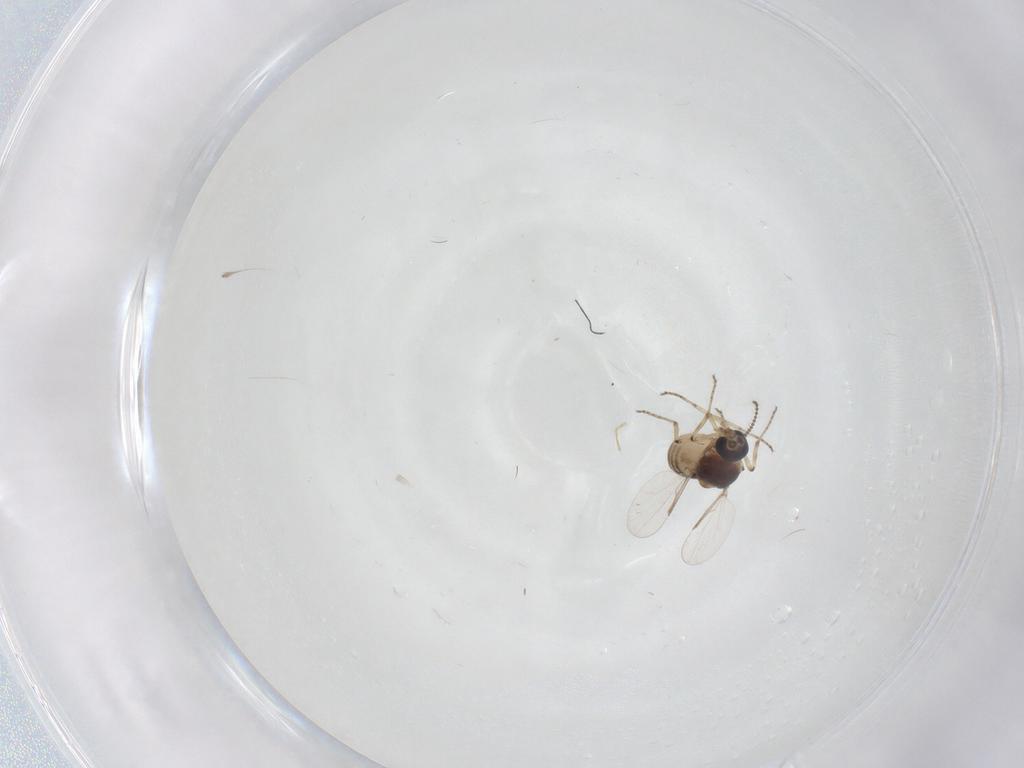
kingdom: Animalia
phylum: Arthropoda
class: Insecta
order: Diptera
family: Ceratopogonidae
